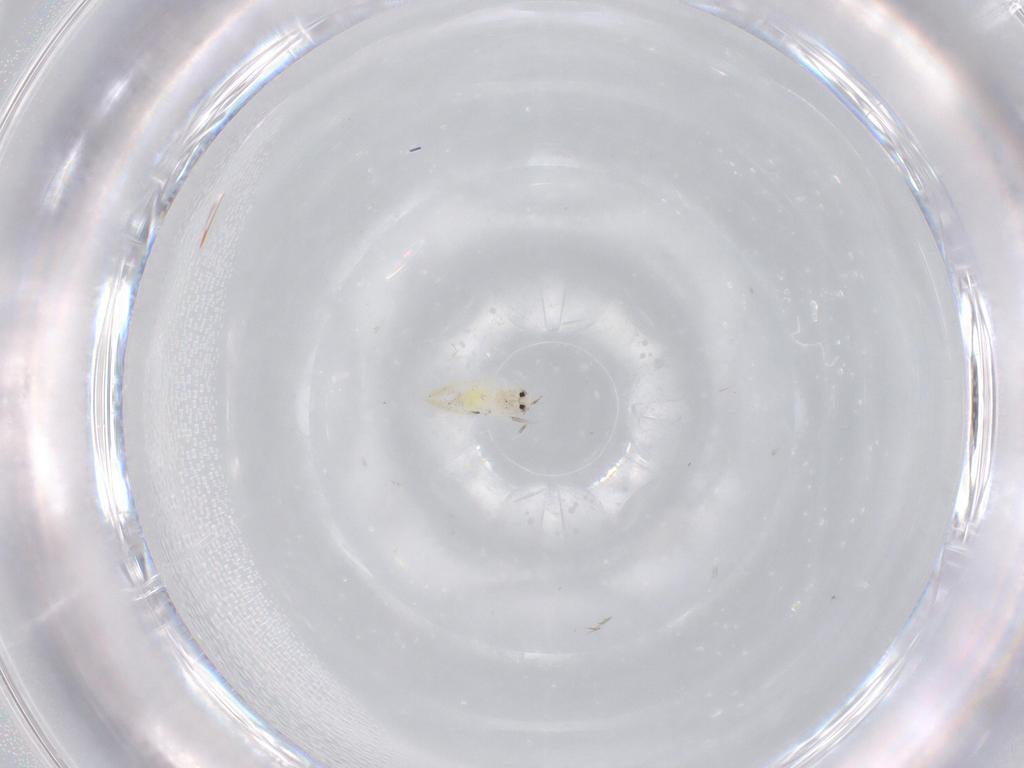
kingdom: Animalia
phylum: Arthropoda
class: Insecta
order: Hemiptera
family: Aleyrodidae
